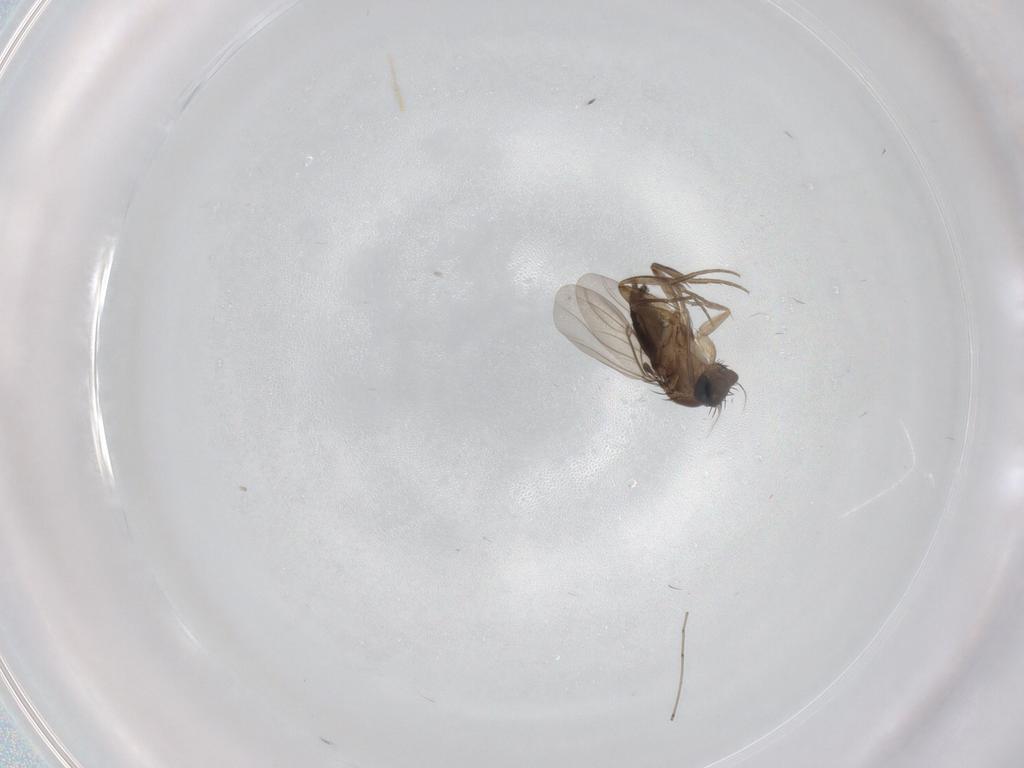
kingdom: Animalia
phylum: Arthropoda
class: Insecta
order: Diptera
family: Phoridae
